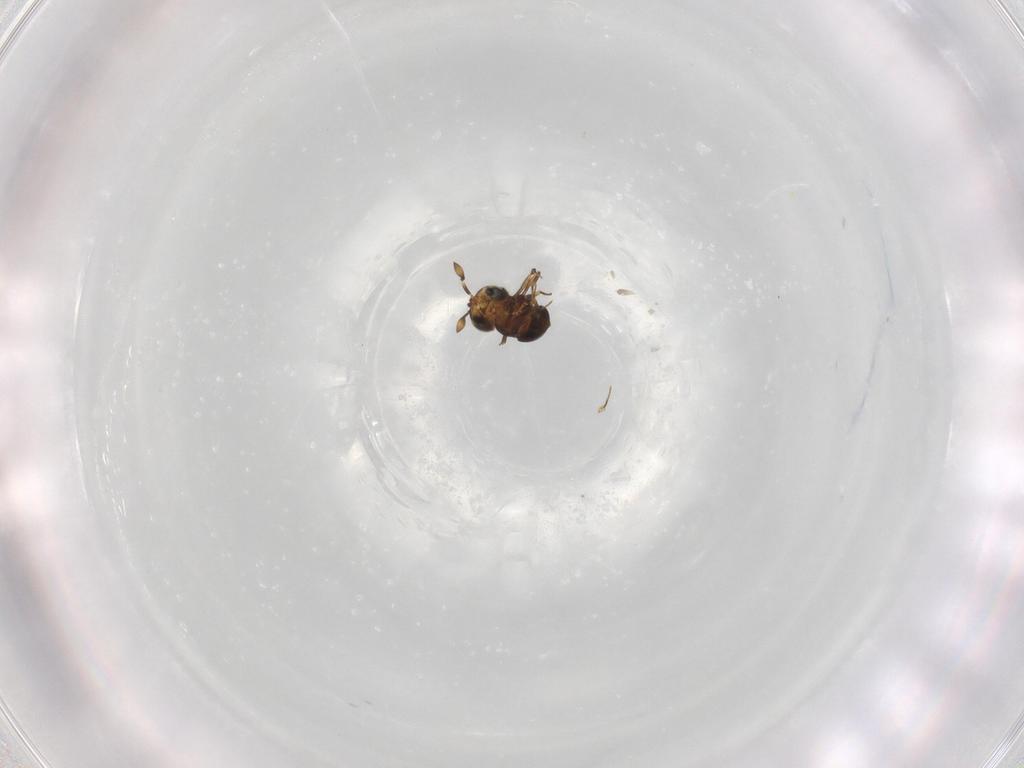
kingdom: Animalia
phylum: Arthropoda
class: Insecta
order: Hymenoptera
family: Scelionidae
